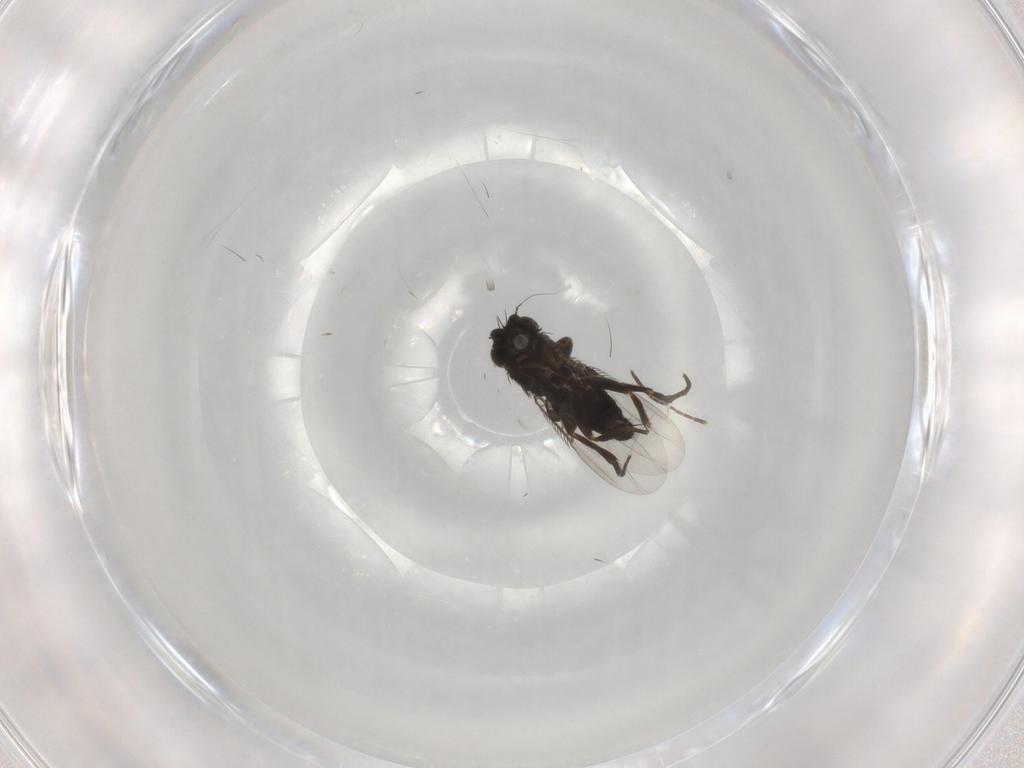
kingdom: Animalia
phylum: Arthropoda
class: Insecta
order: Diptera
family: Phoridae
